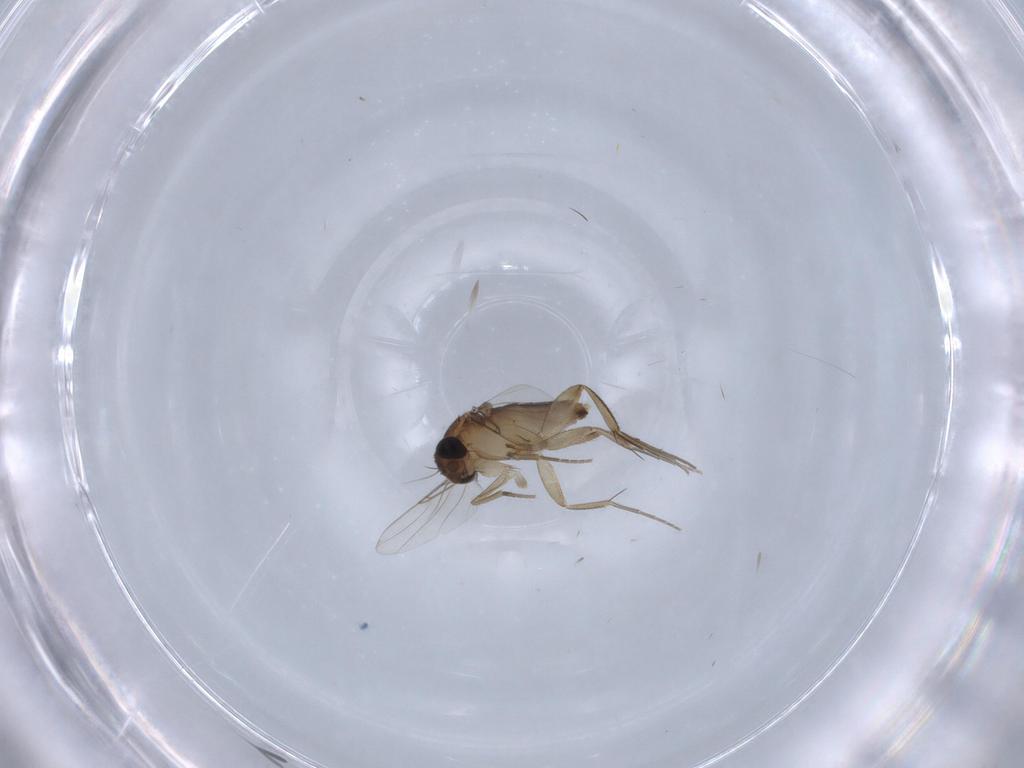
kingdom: Animalia
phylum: Arthropoda
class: Insecta
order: Diptera
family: Phoridae
